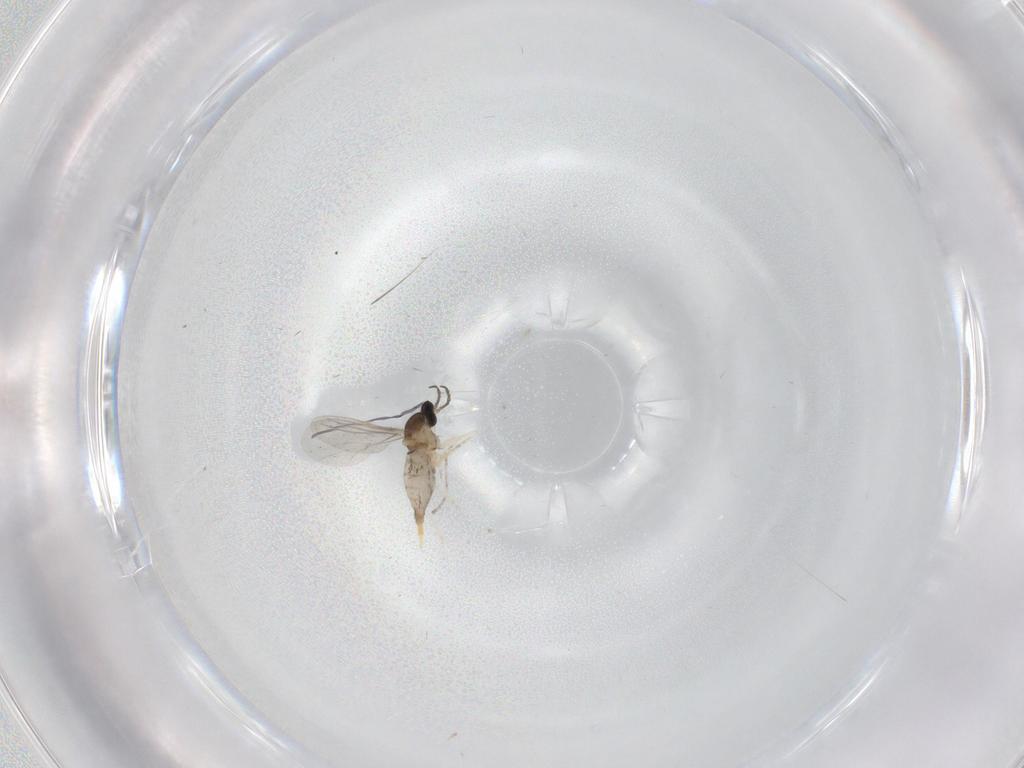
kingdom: Animalia
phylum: Arthropoda
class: Insecta
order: Diptera
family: Cecidomyiidae
